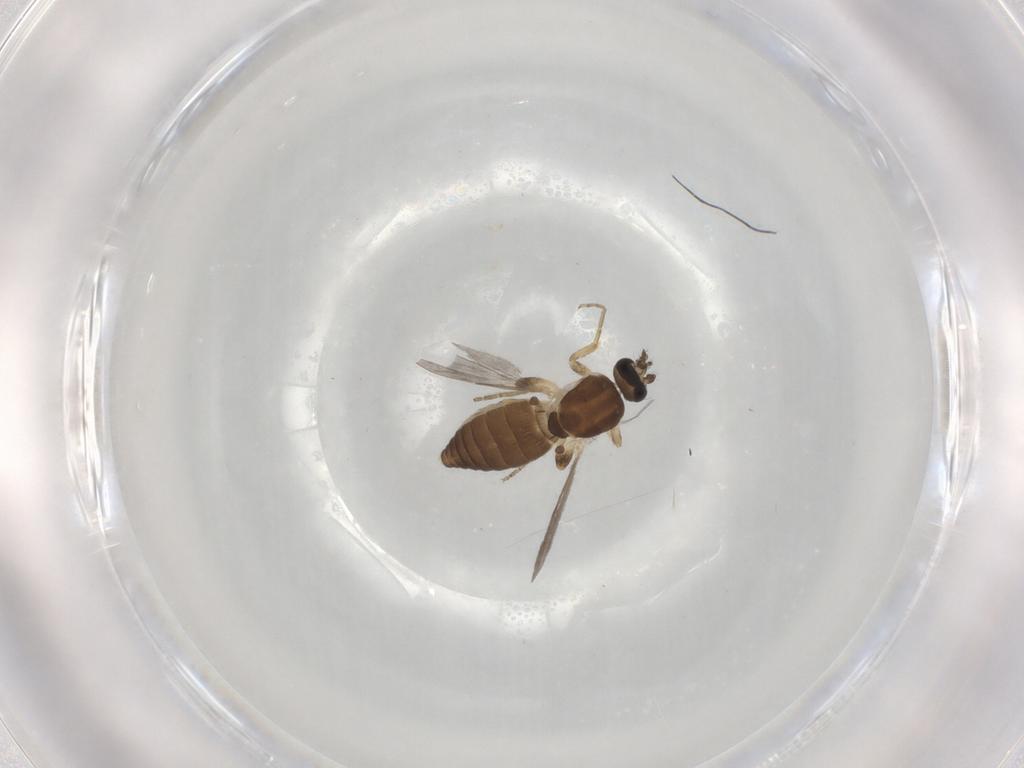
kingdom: Animalia
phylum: Arthropoda
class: Insecta
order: Diptera
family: Ceratopogonidae
